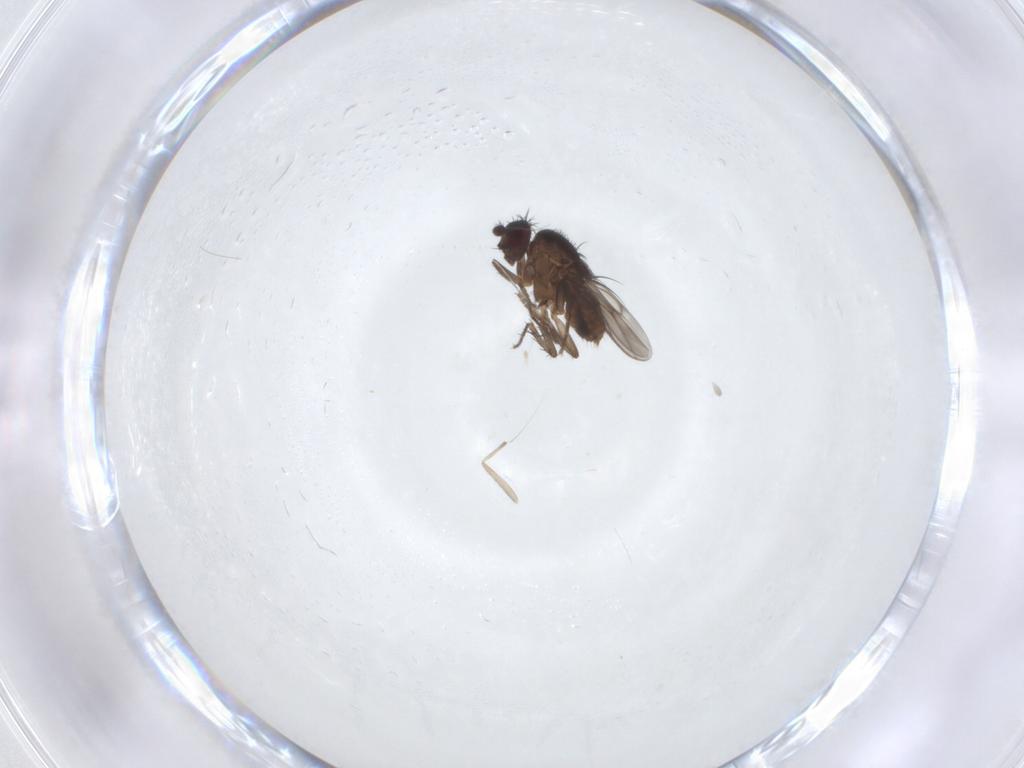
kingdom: Animalia
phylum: Arthropoda
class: Insecta
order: Diptera
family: Sphaeroceridae
